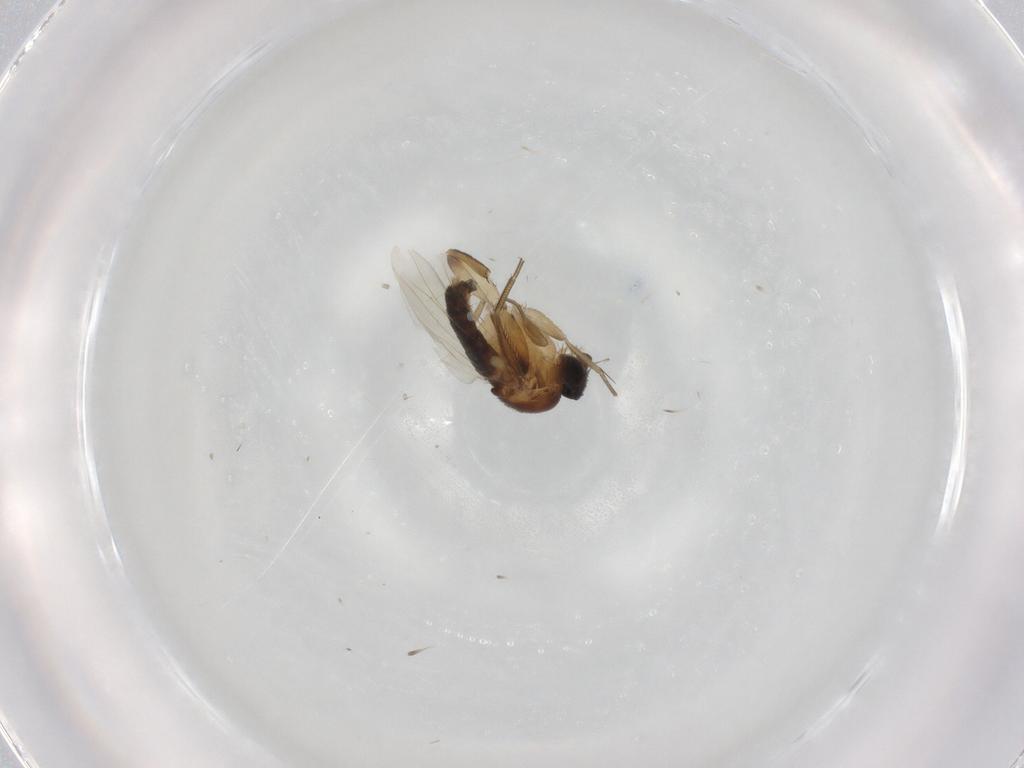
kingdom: Animalia
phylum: Arthropoda
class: Insecta
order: Diptera
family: Phoridae
